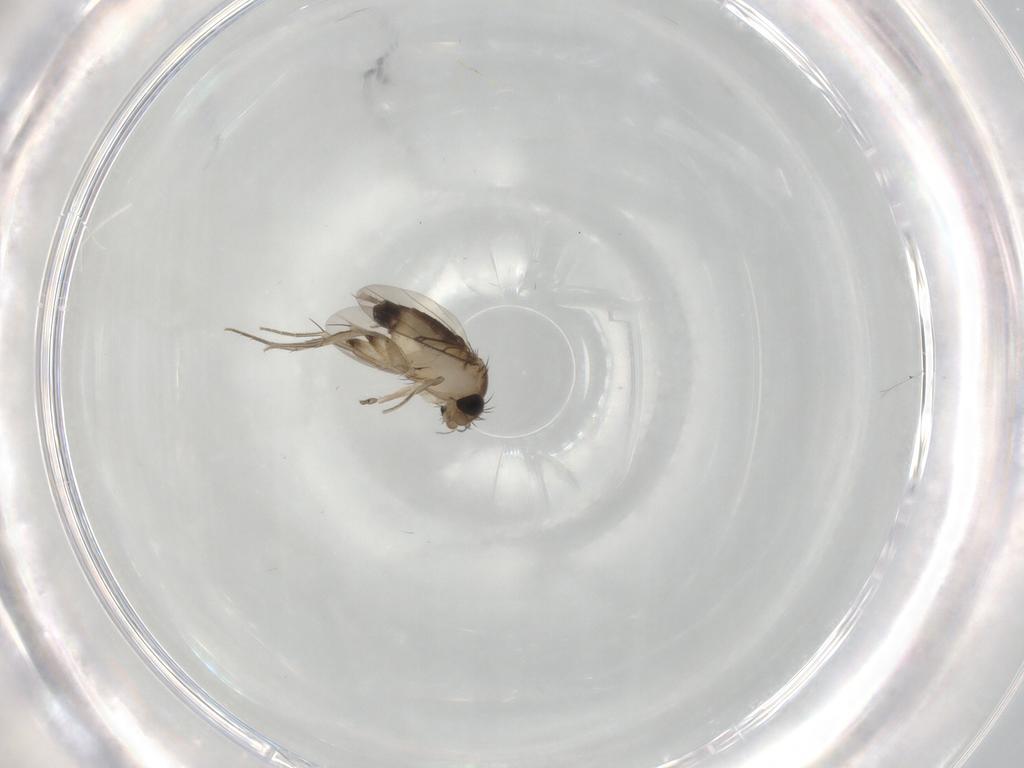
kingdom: Animalia
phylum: Arthropoda
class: Insecta
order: Diptera
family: Phoridae
